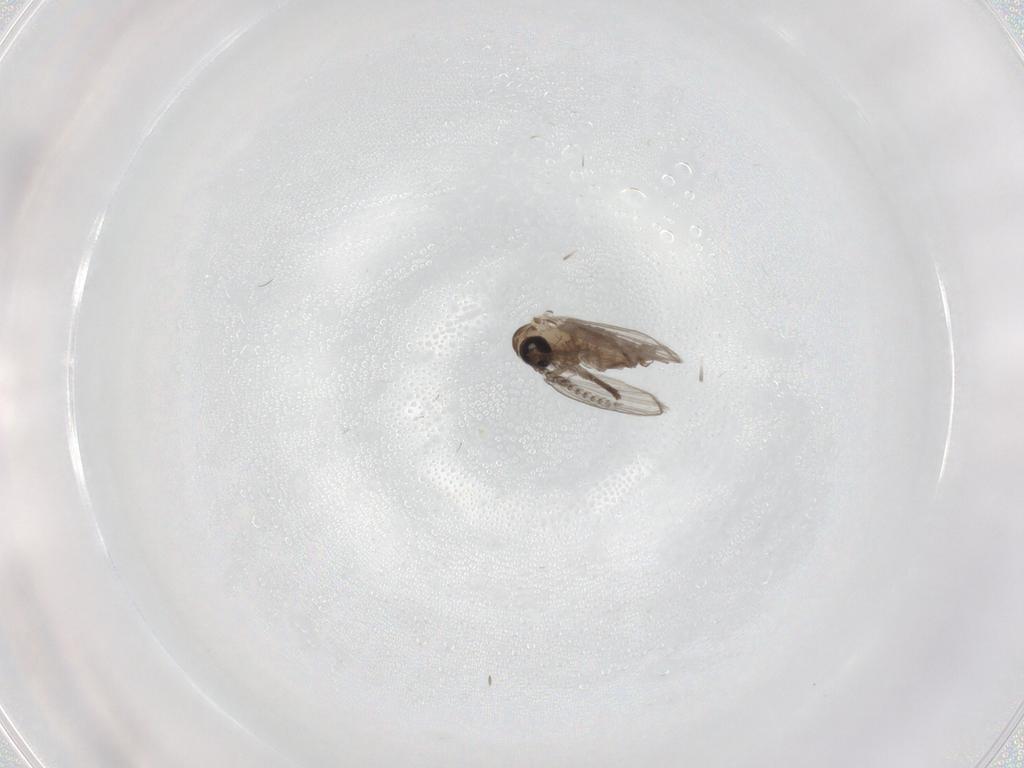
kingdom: Animalia
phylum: Arthropoda
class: Insecta
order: Diptera
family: Psychodidae
